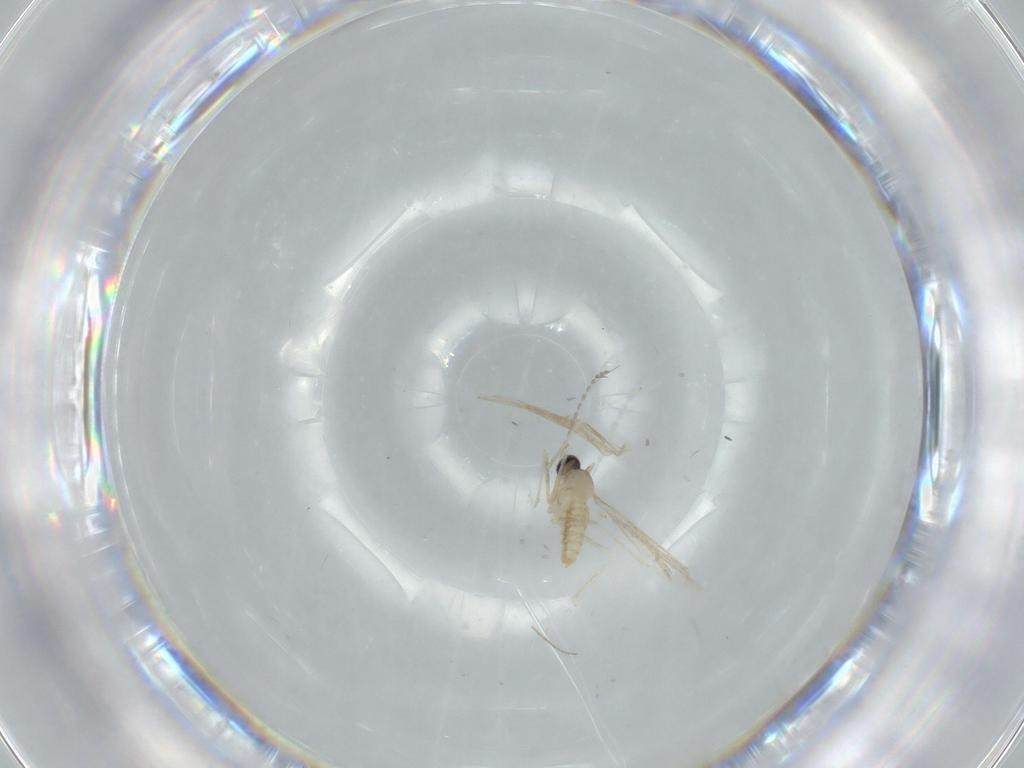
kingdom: Animalia
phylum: Arthropoda
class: Insecta
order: Diptera
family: Cecidomyiidae
